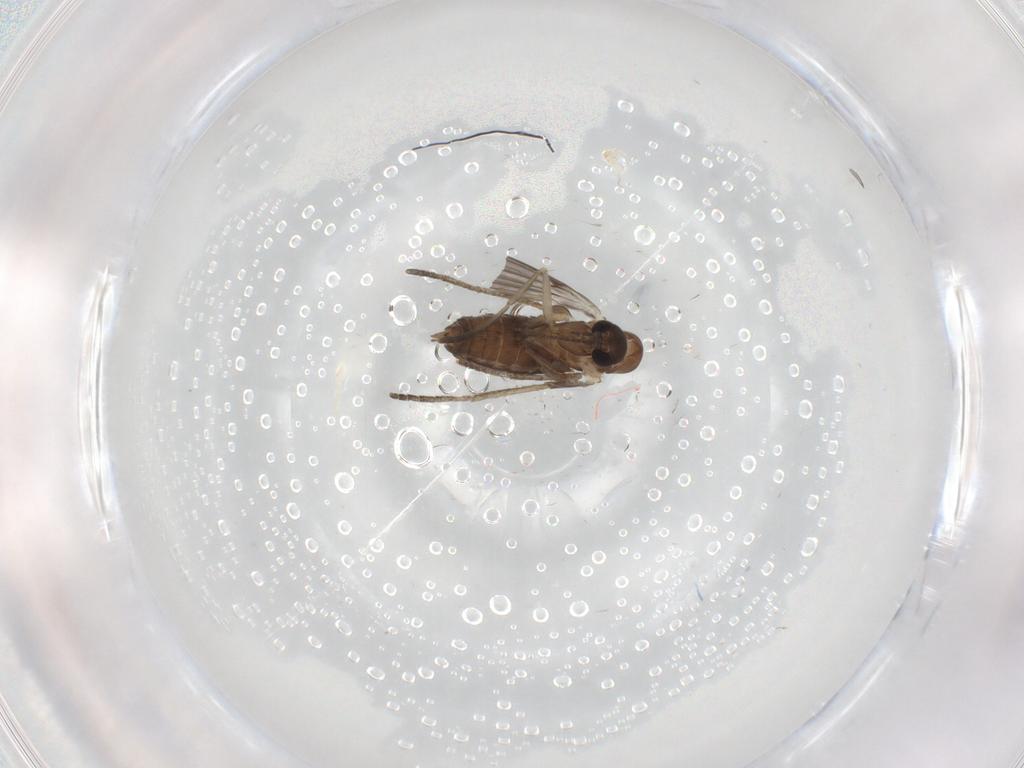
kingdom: Animalia
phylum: Arthropoda
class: Insecta
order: Diptera
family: Psychodidae
